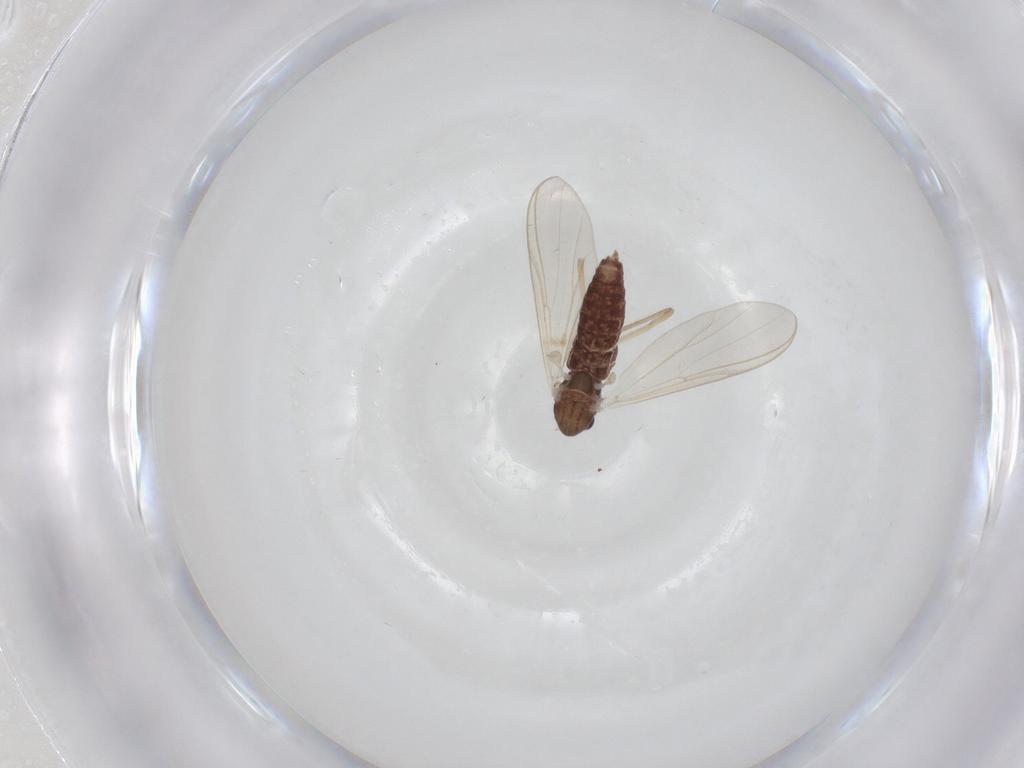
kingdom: Animalia
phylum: Arthropoda
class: Insecta
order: Diptera
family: Chironomidae
